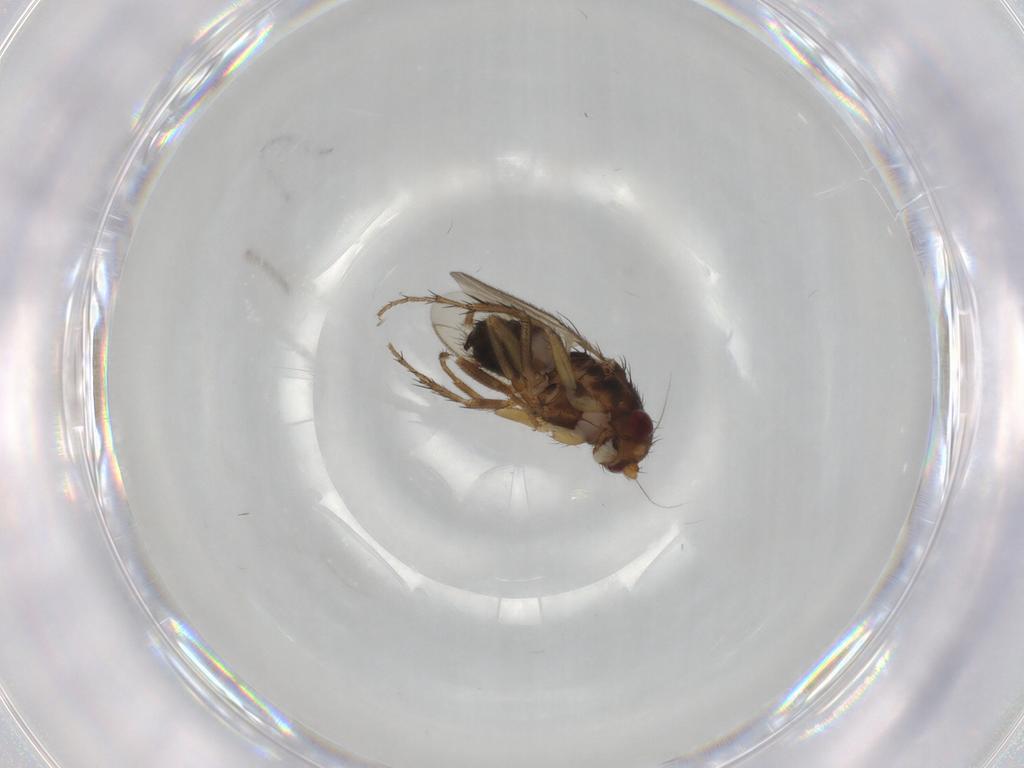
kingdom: Animalia
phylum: Arthropoda
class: Insecta
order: Diptera
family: Sphaeroceridae
